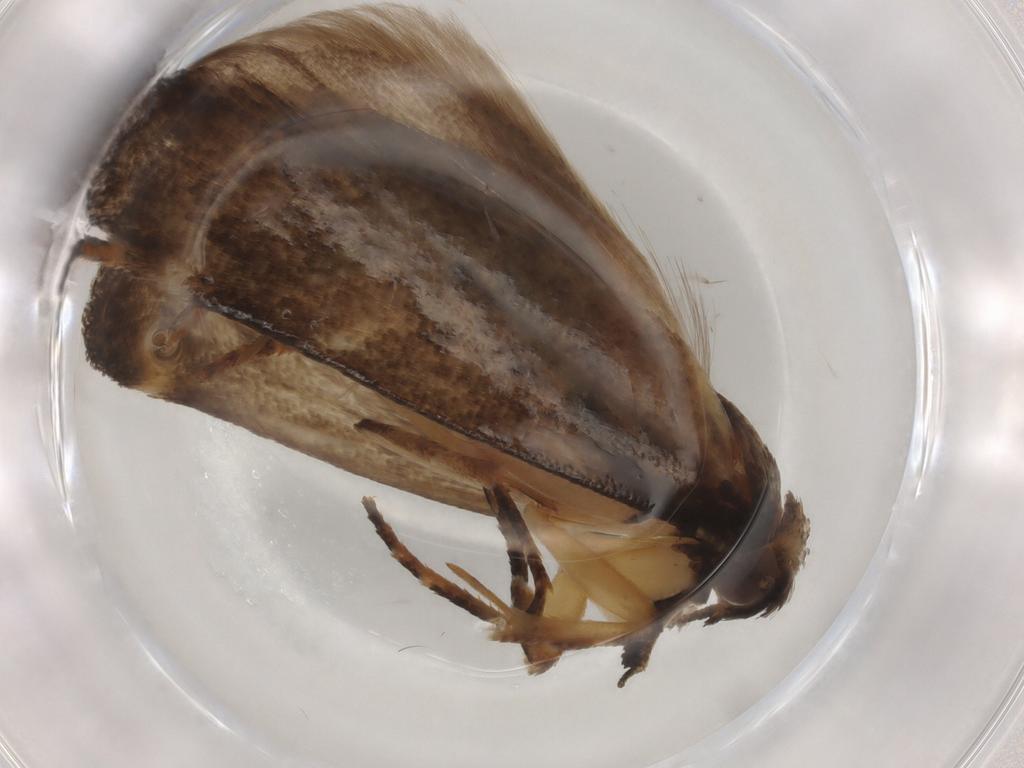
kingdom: Animalia
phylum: Arthropoda
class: Insecta
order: Lepidoptera
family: Gelechiidae
